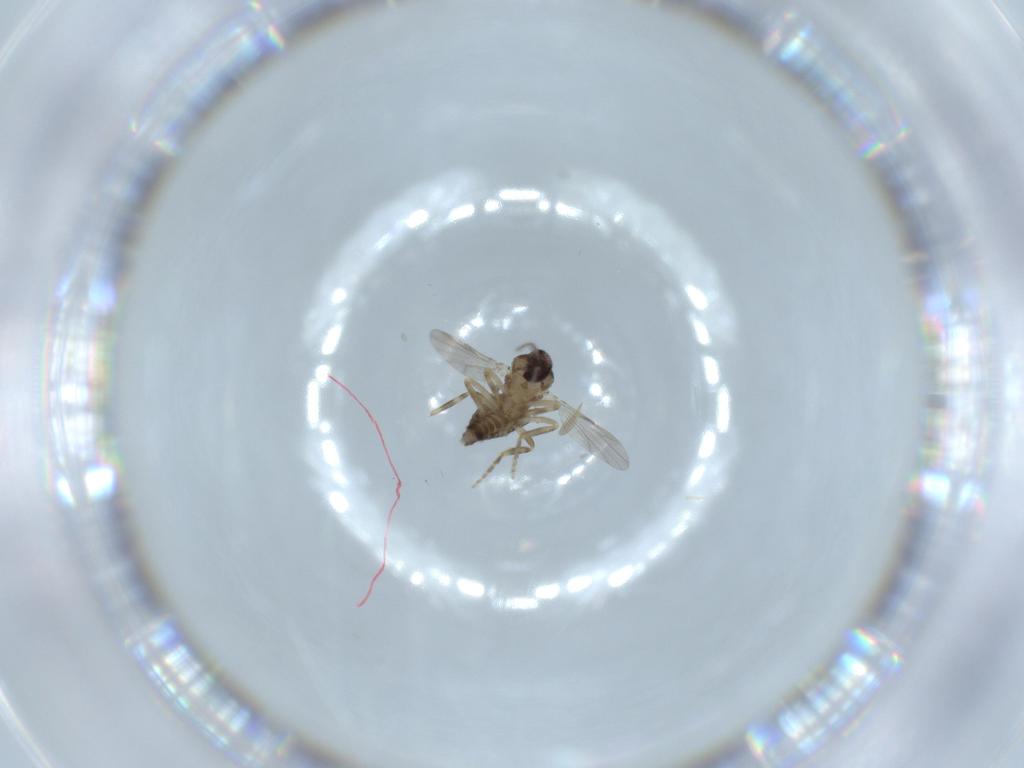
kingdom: Animalia
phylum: Arthropoda
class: Insecta
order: Diptera
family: Ceratopogonidae
